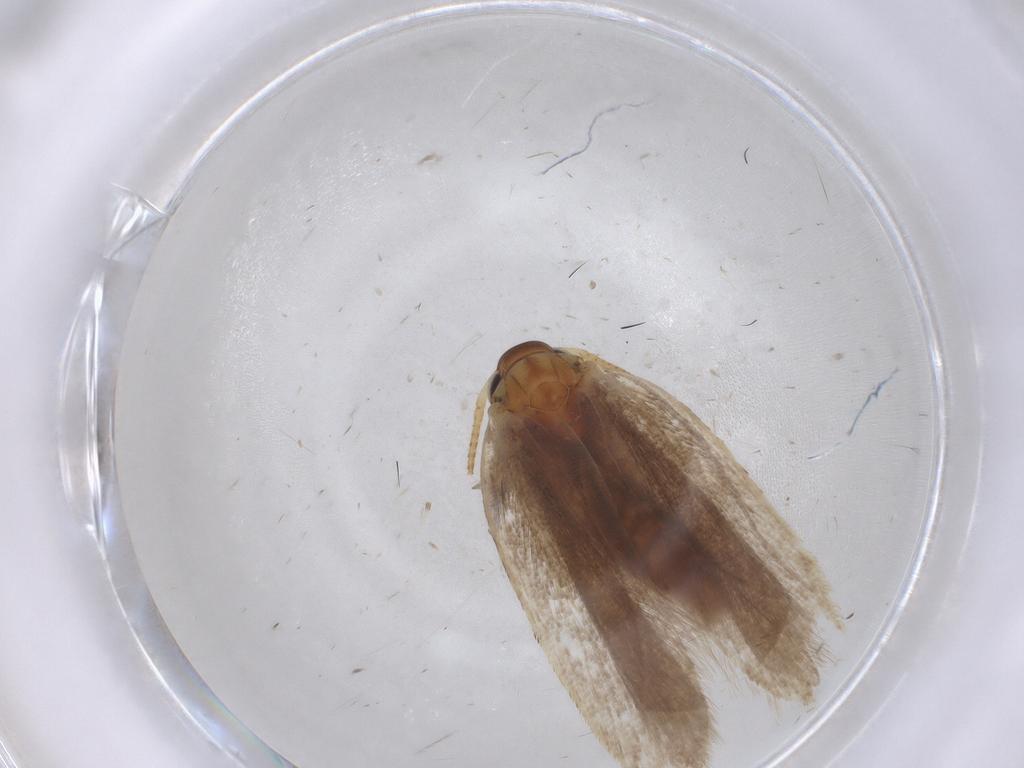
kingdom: Animalia
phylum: Arthropoda
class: Insecta
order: Lepidoptera
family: Gelechiidae
